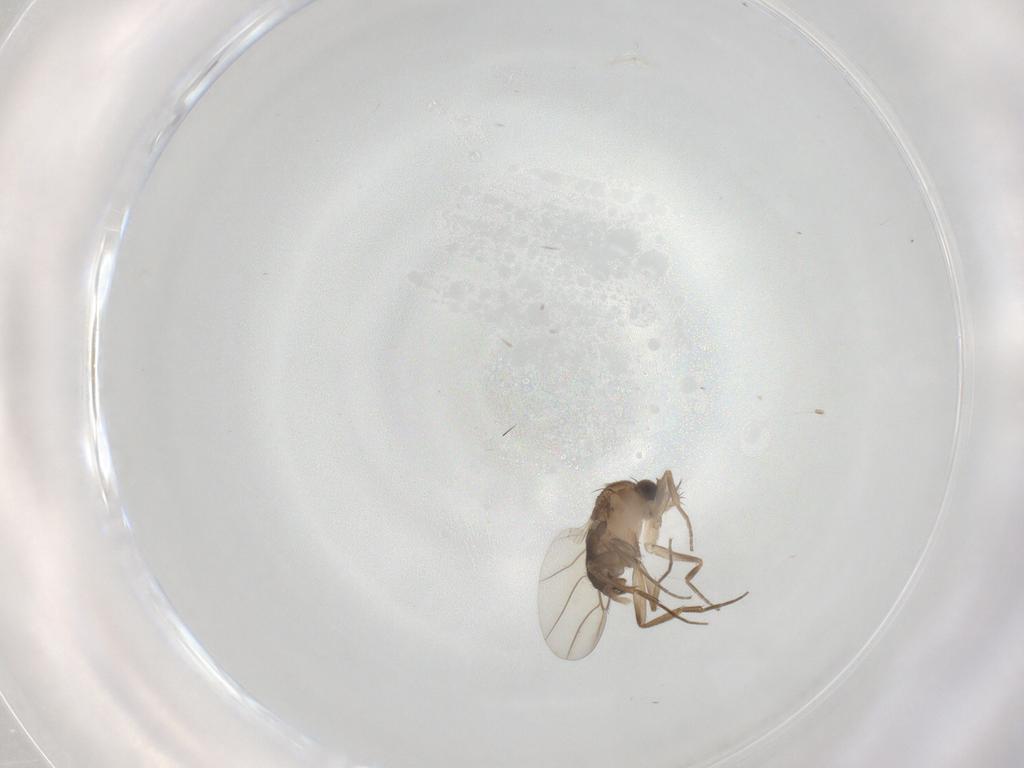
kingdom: Animalia
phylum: Arthropoda
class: Insecta
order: Diptera
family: Phoridae
